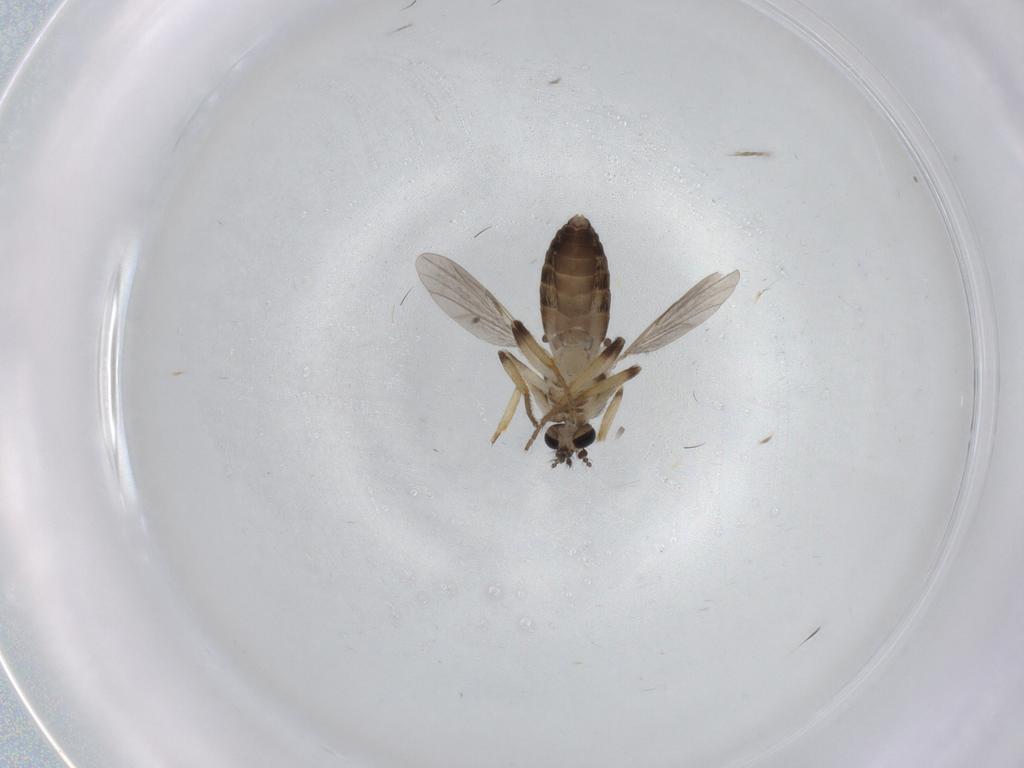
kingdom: Animalia
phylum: Arthropoda
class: Insecta
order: Diptera
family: Ceratopogonidae
